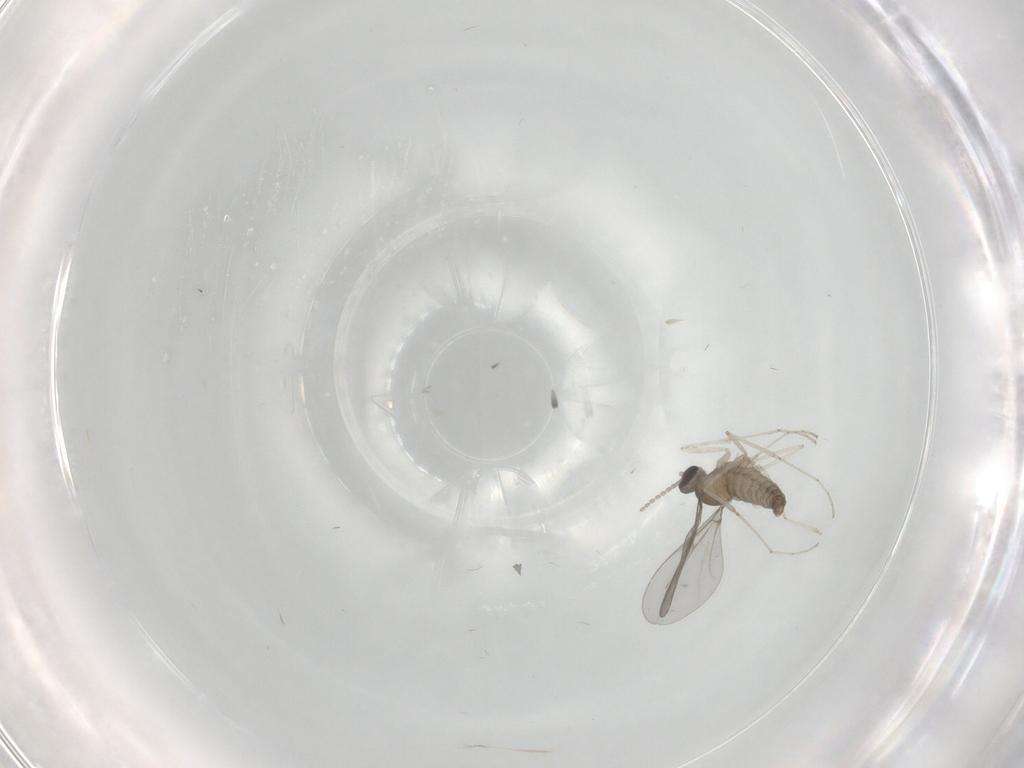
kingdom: Animalia
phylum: Arthropoda
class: Insecta
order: Diptera
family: Cecidomyiidae
